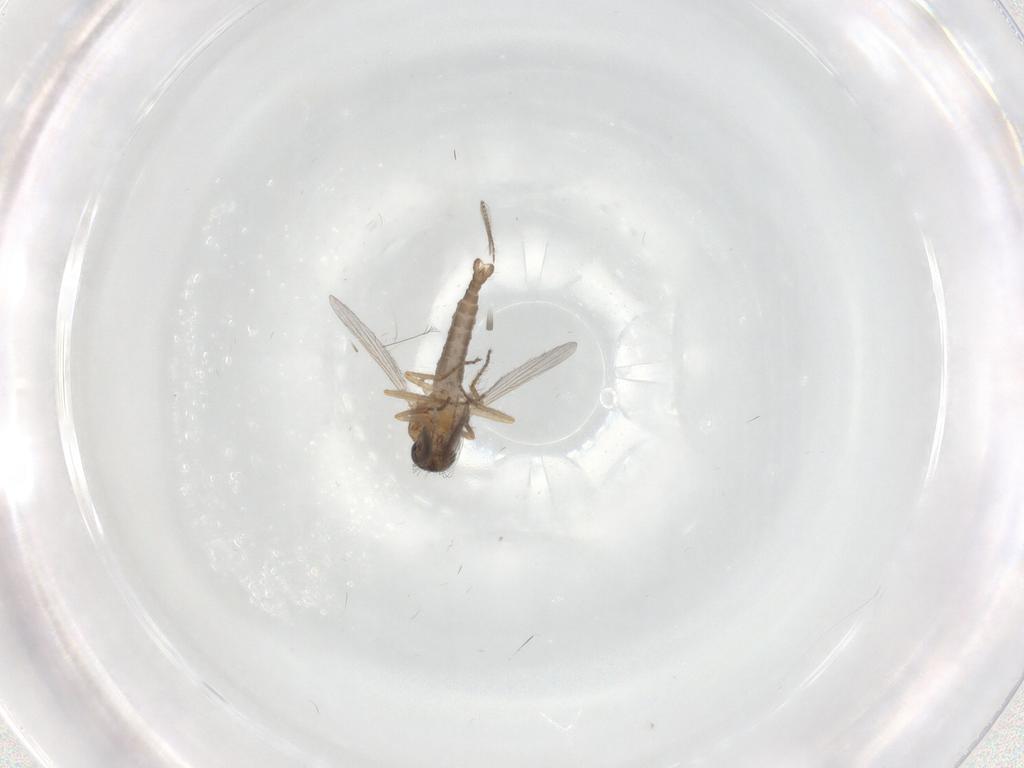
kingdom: Animalia
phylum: Arthropoda
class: Insecta
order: Diptera
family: Ceratopogonidae
